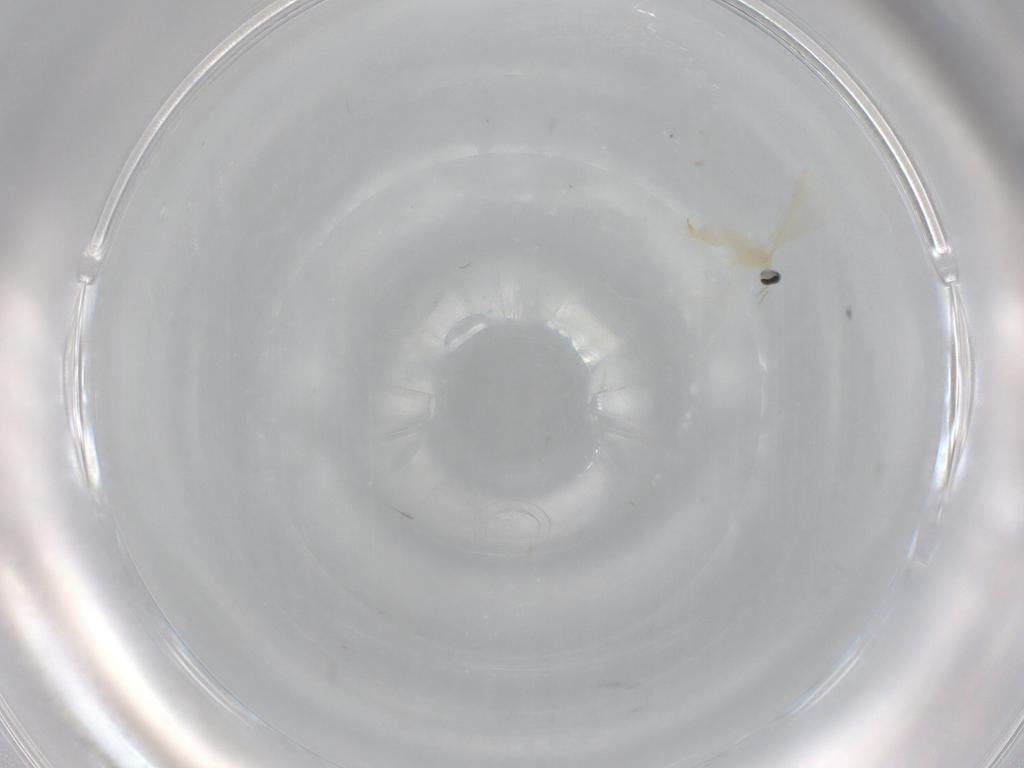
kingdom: Animalia
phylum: Arthropoda
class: Insecta
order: Diptera
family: Cecidomyiidae
